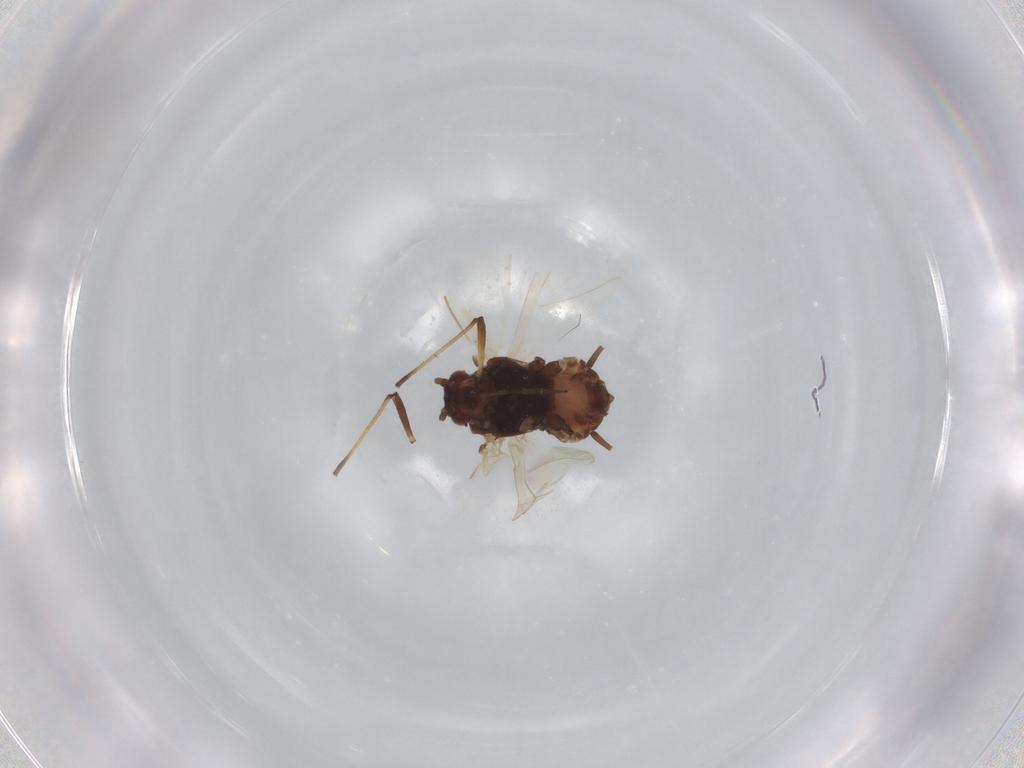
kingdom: Animalia
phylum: Arthropoda
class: Insecta
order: Hemiptera
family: Aphididae
